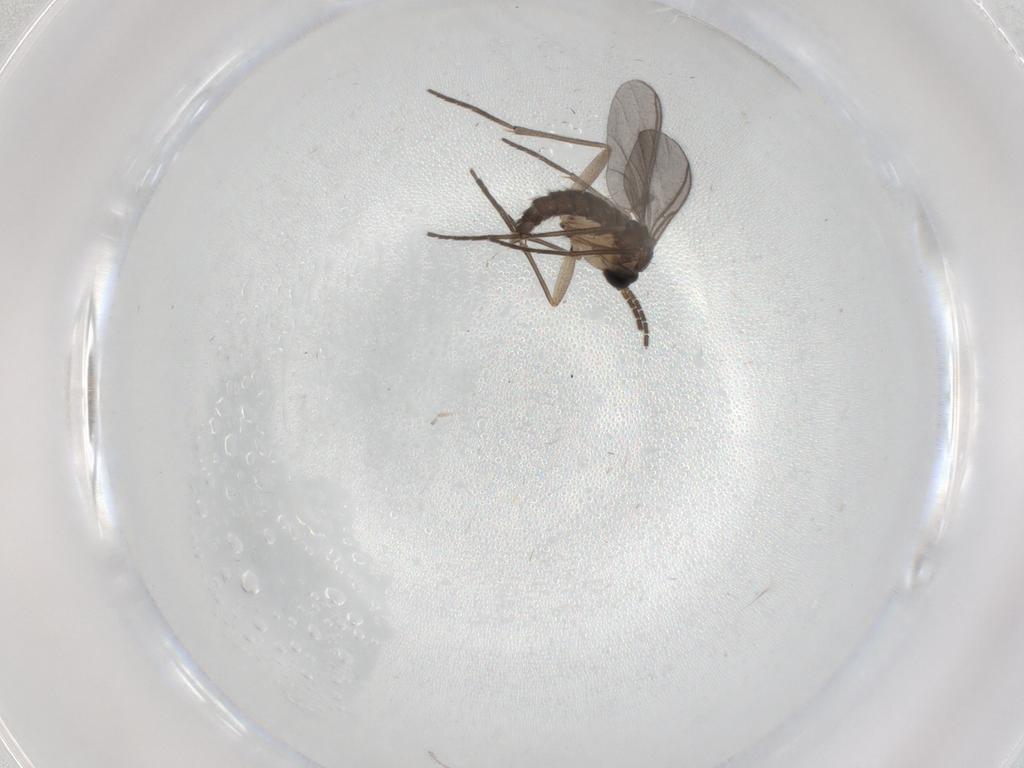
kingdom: Animalia
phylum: Arthropoda
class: Insecta
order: Diptera
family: Sciaridae
